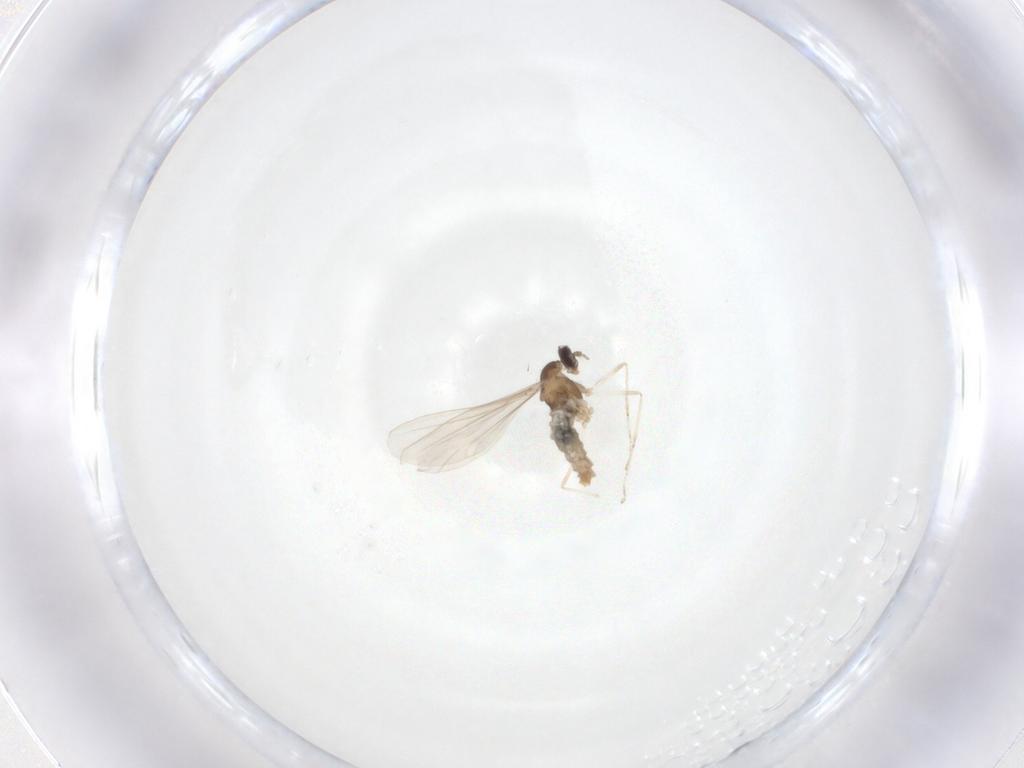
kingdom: Animalia
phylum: Arthropoda
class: Insecta
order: Diptera
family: Cecidomyiidae
